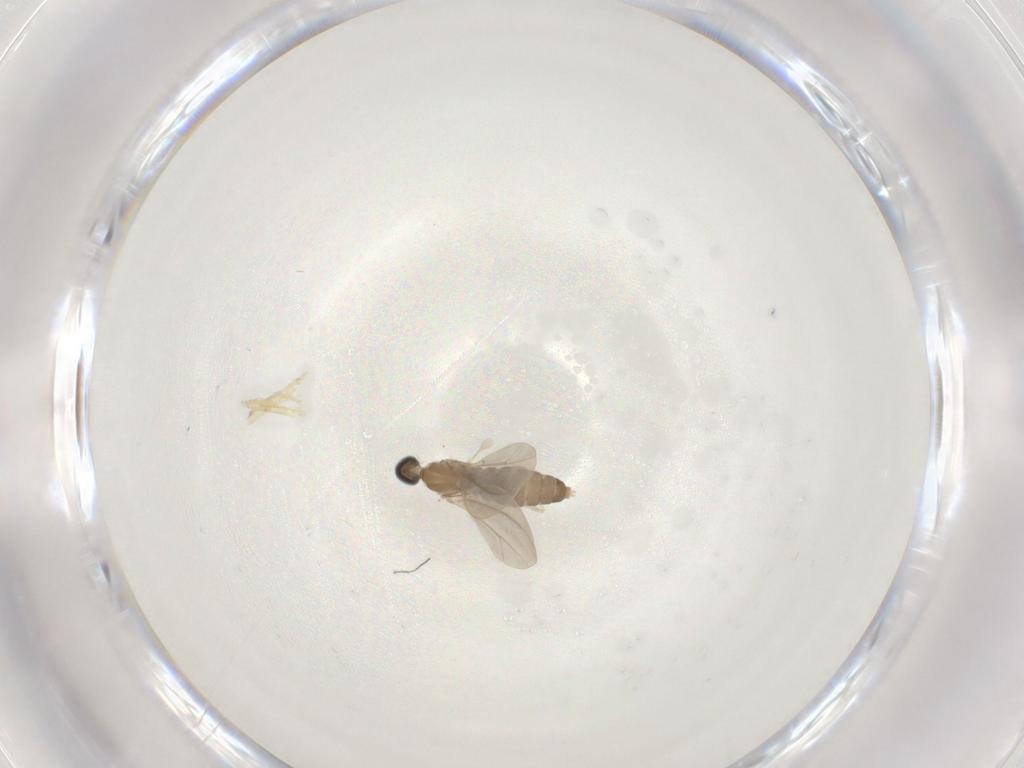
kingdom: Animalia
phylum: Arthropoda
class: Insecta
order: Diptera
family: Cecidomyiidae
